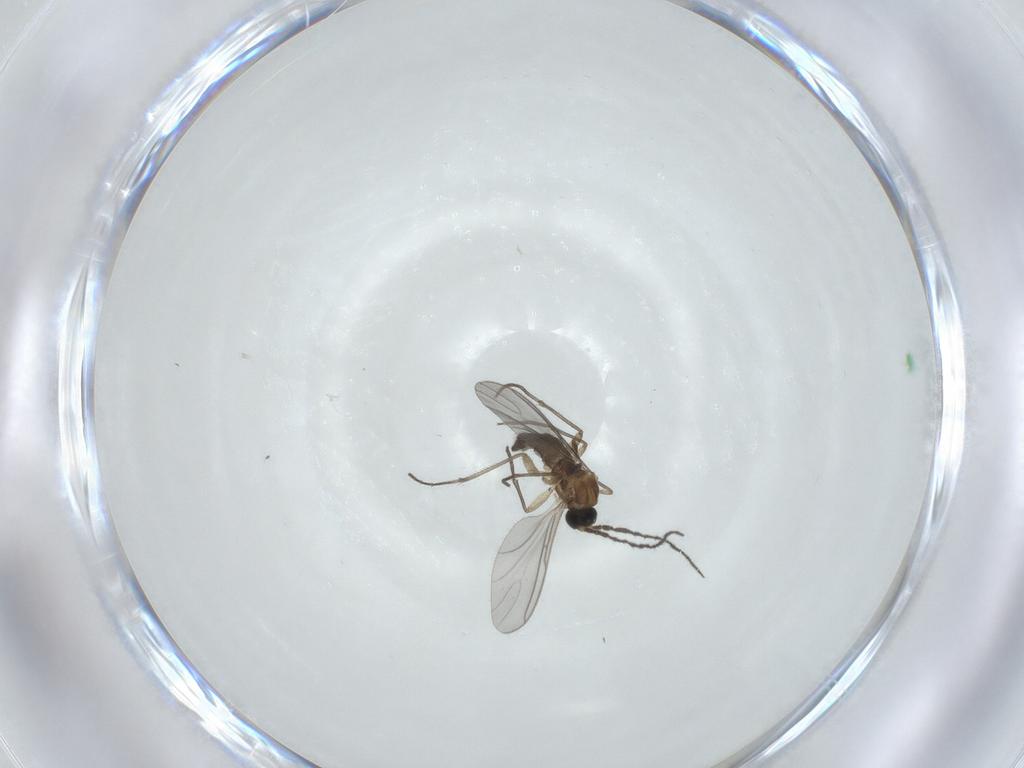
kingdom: Animalia
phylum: Arthropoda
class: Insecta
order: Diptera
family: Sciaridae
